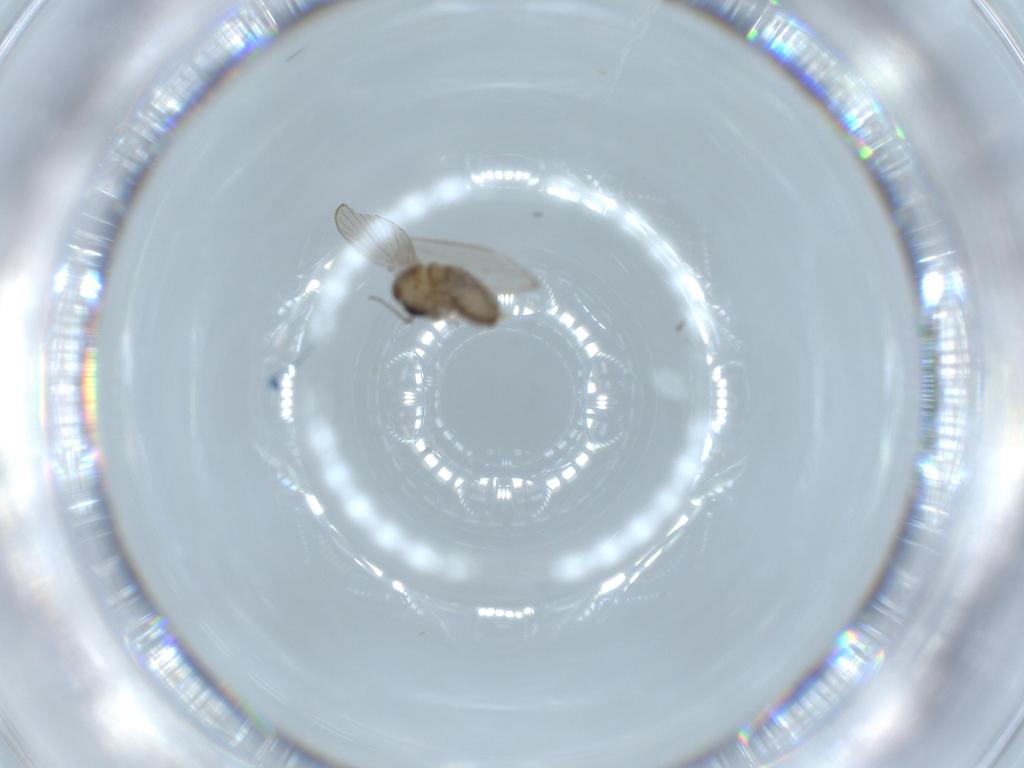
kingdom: Animalia
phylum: Arthropoda
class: Insecta
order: Diptera
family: Psychodidae
